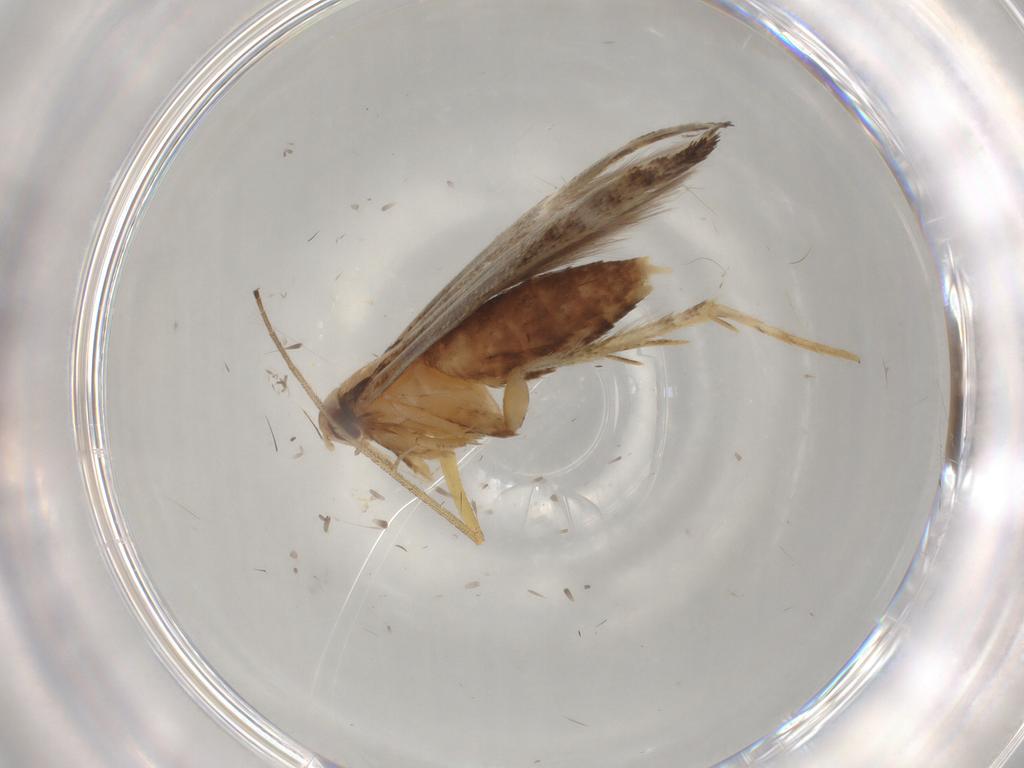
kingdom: Animalia
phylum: Arthropoda
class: Insecta
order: Lepidoptera
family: Cosmopterigidae
